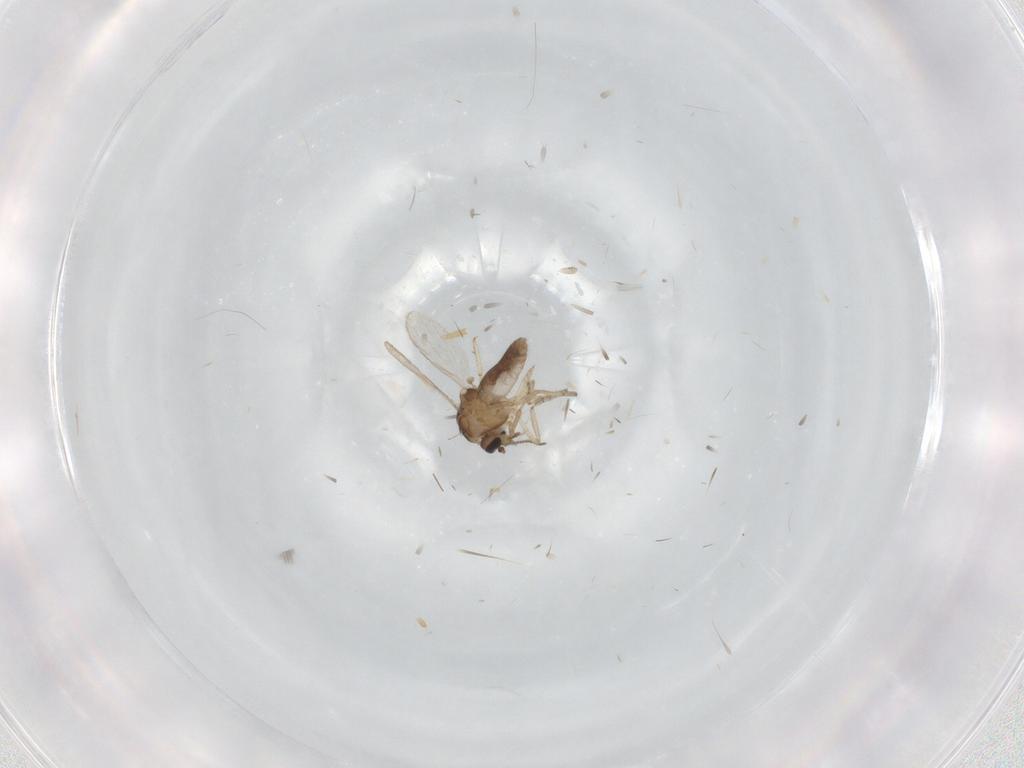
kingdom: Animalia
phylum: Arthropoda
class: Insecta
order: Diptera
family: Ceratopogonidae
